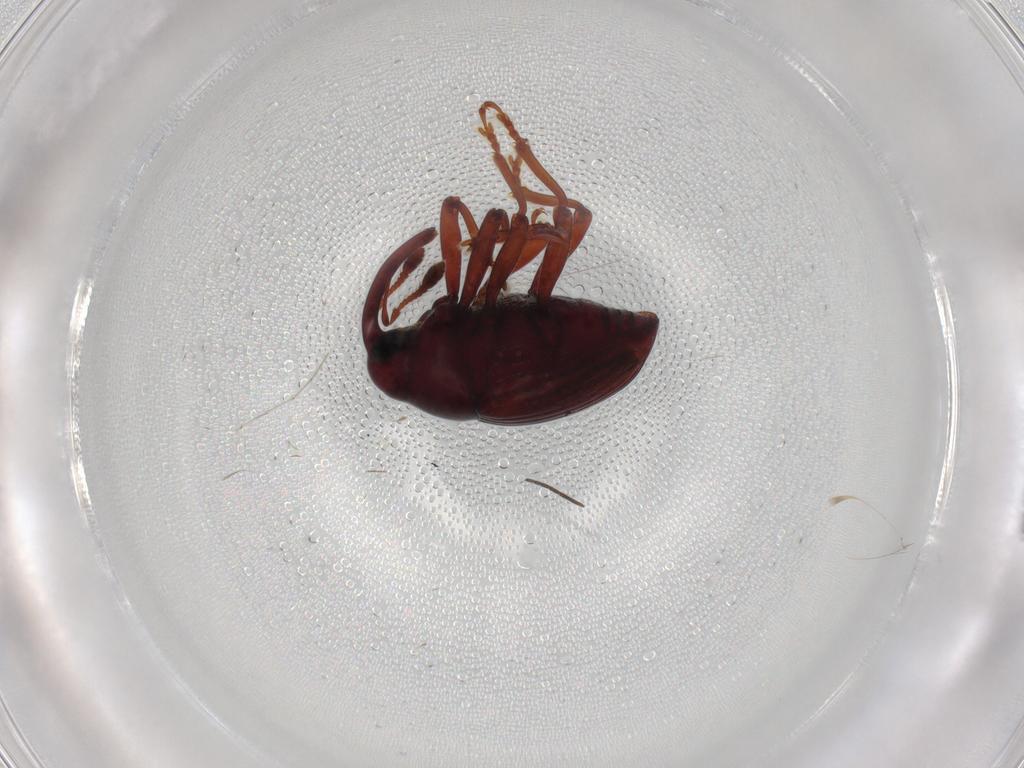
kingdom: Animalia
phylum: Arthropoda
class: Insecta
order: Coleoptera
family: Curculionidae
